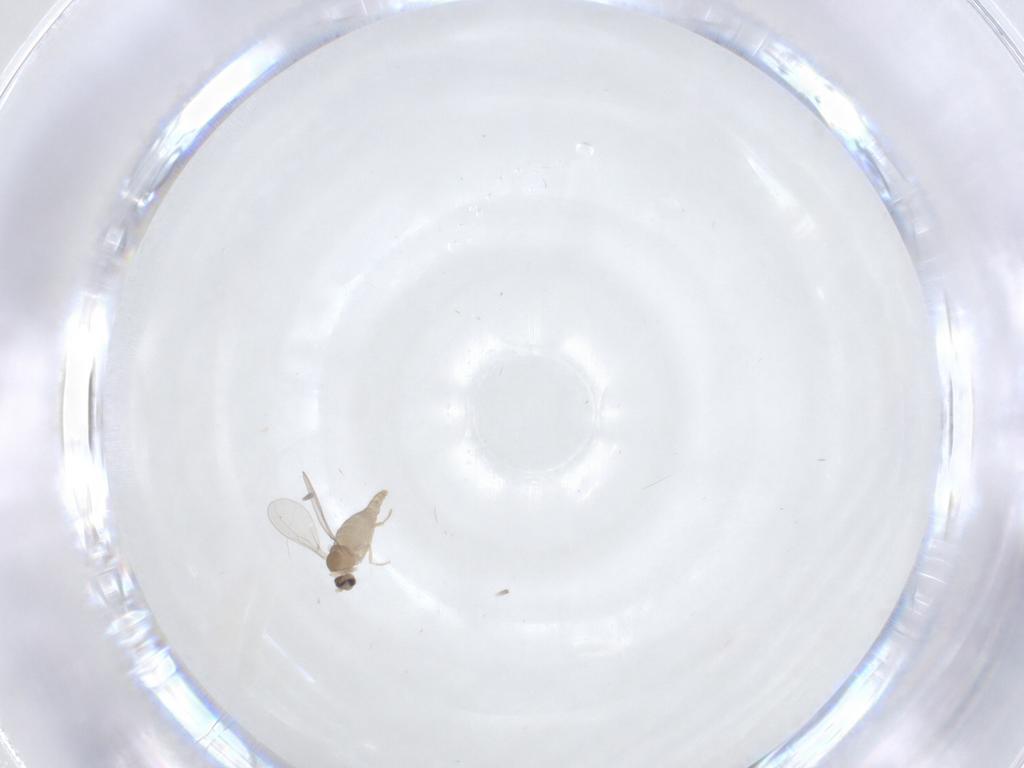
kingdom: Animalia
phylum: Arthropoda
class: Insecta
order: Diptera
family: Cecidomyiidae
